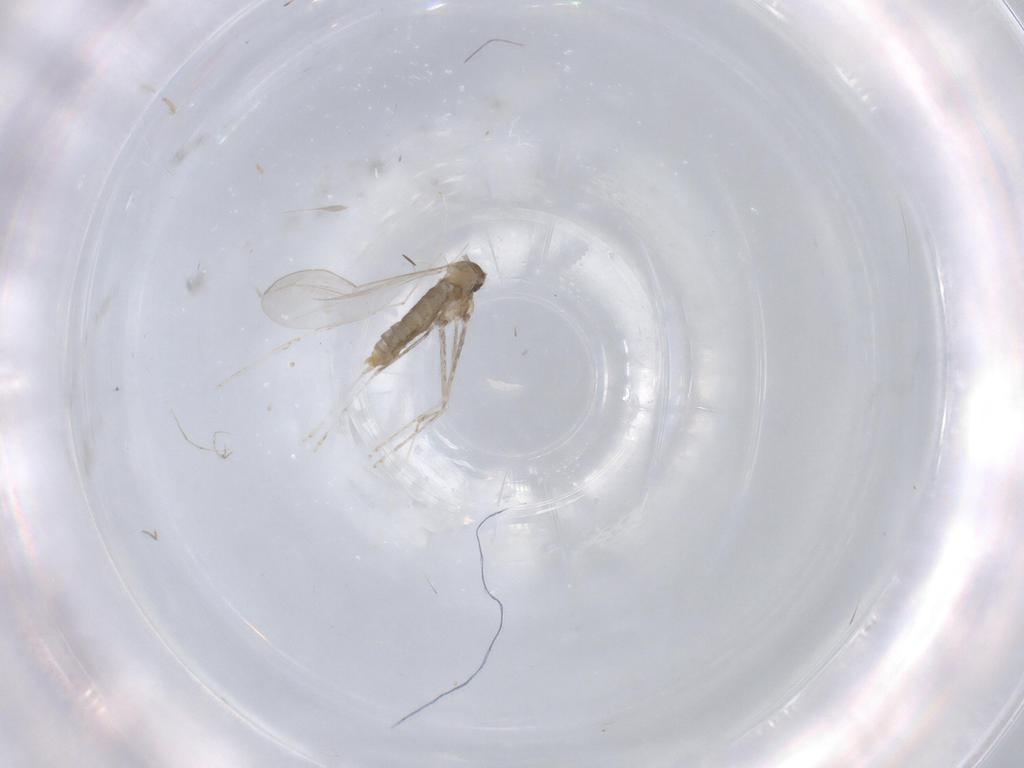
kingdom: Animalia
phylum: Arthropoda
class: Insecta
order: Diptera
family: Cecidomyiidae
